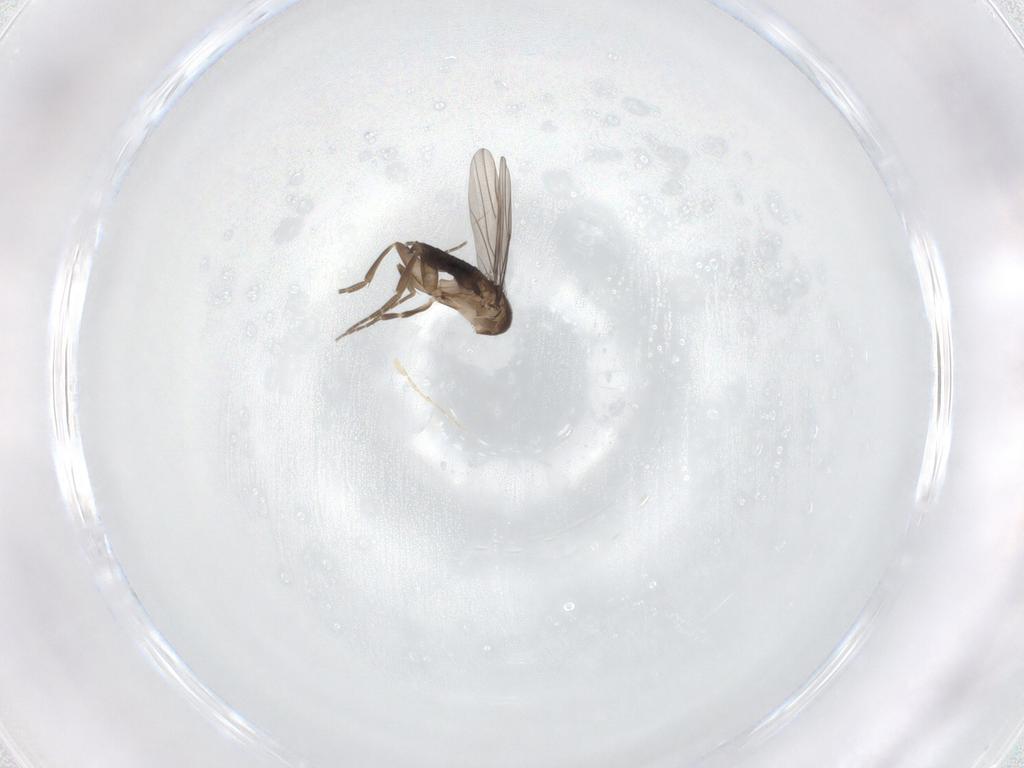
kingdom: Animalia
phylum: Arthropoda
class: Insecta
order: Diptera
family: Phoridae
